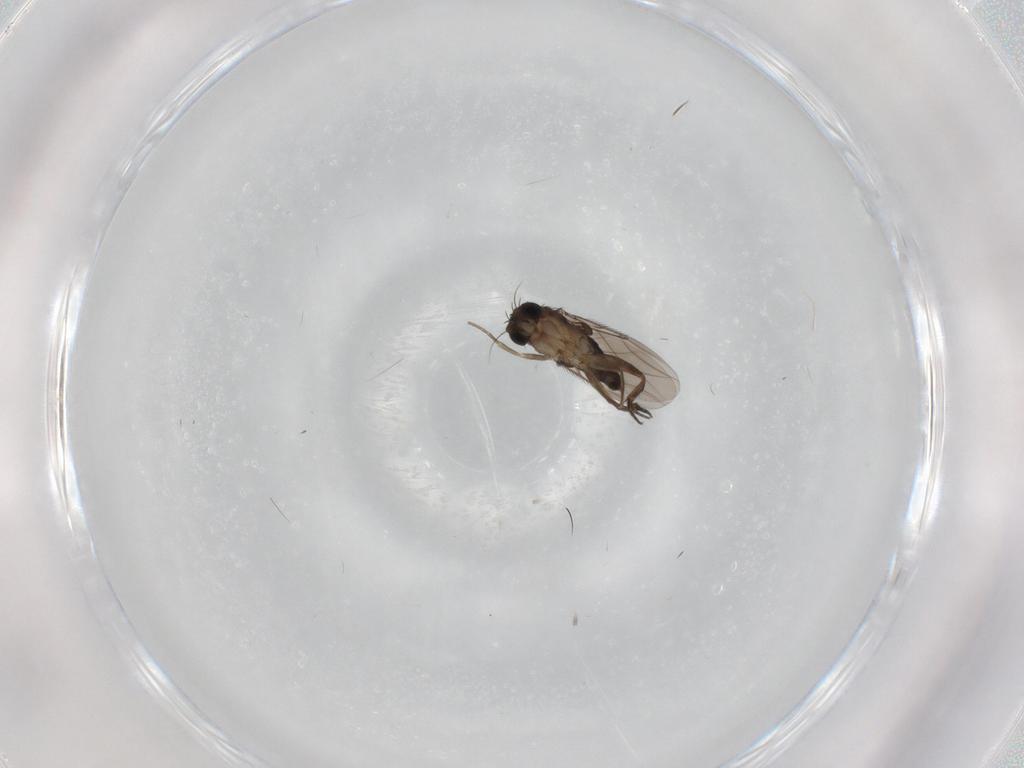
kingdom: Animalia
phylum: Arthropoda
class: Insecta
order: Diptera
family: Phoridae
